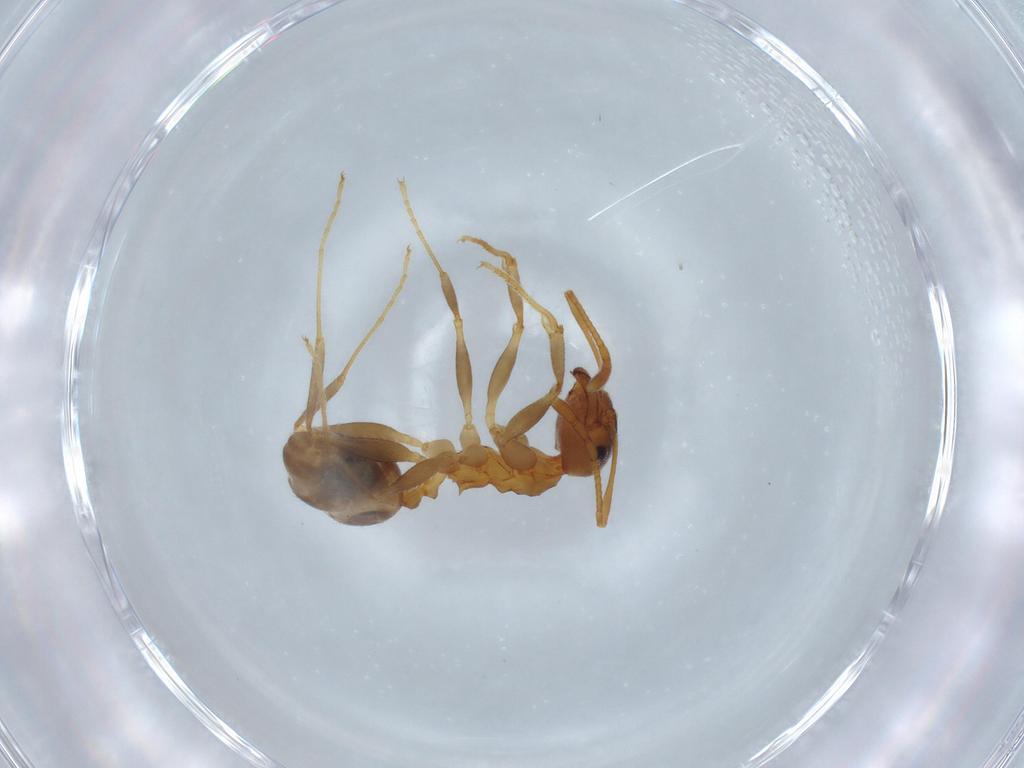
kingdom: Animalia
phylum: Arthropoda
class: Insecta
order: Hymenoptera
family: Formicidae
